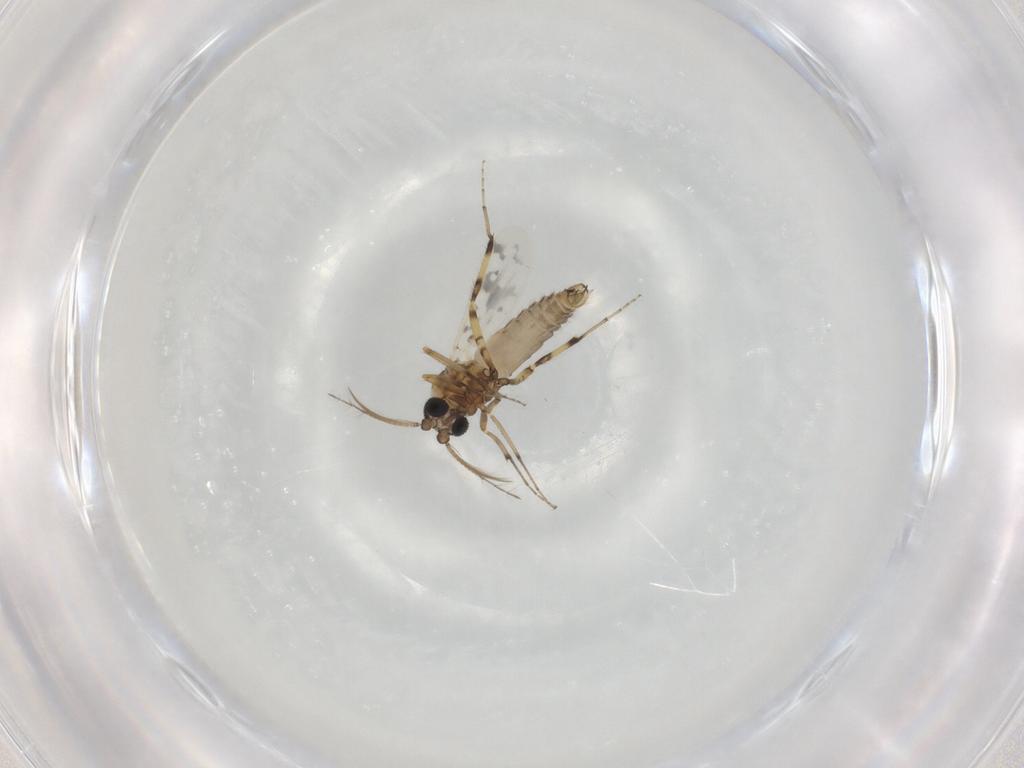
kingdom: Animalia
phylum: Arthropoda
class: Insecta
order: Diptera
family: Ceratopogonidae
